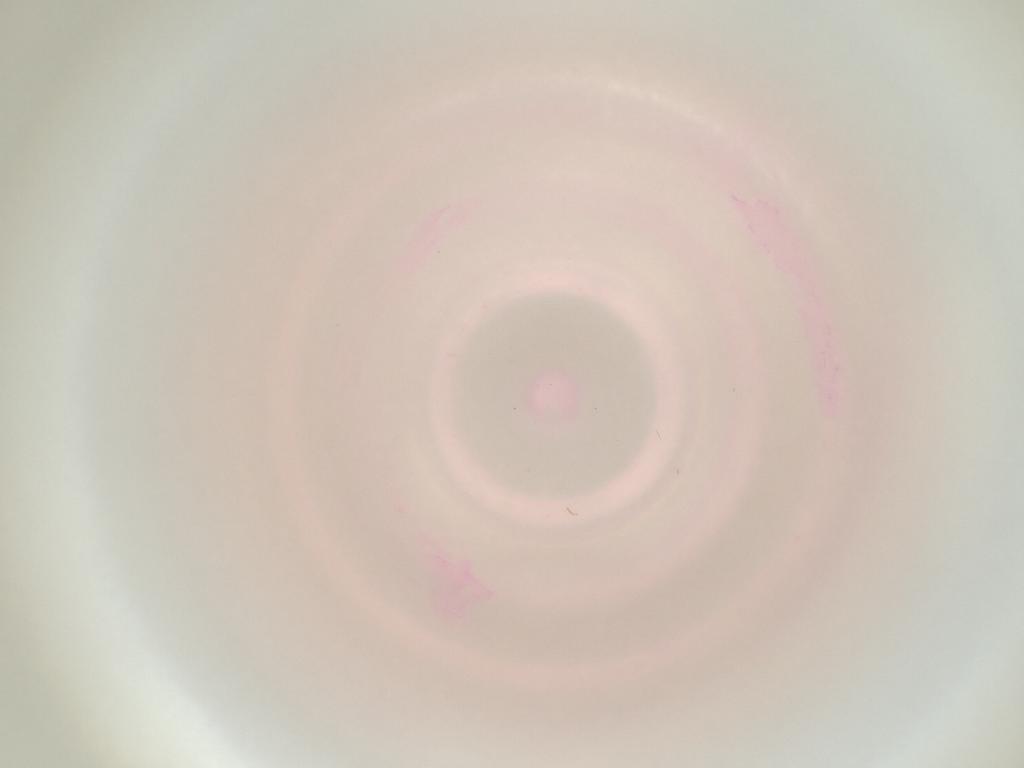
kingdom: Animalia
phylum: Arthropoda
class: Insecta
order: Diptera
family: Cecidomyiidae
